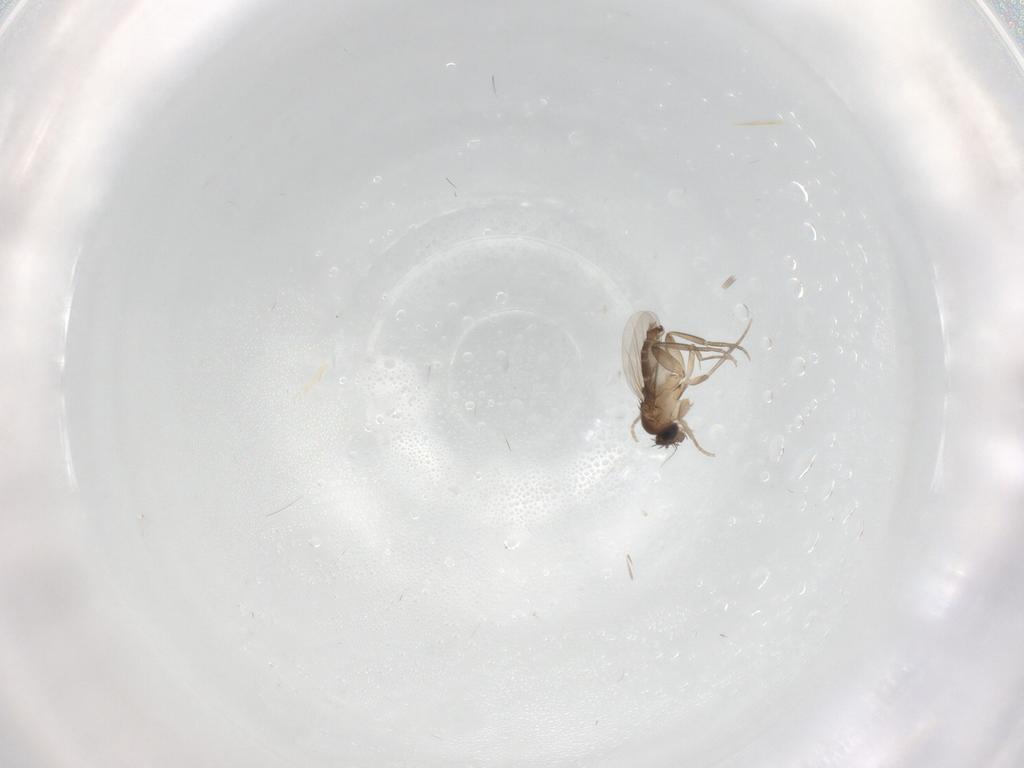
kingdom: Animalia
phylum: Arthropoda
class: Insecta
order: Diptera
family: Phoridae
